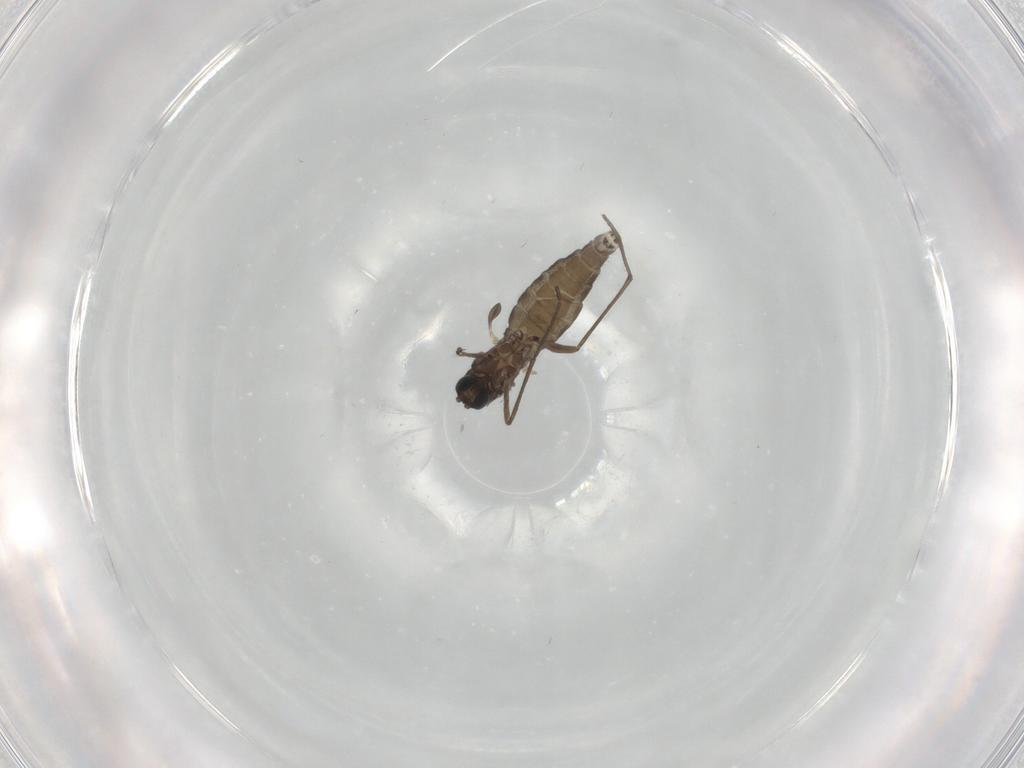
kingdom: Animalia
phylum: Arthropoda
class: Insecta
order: Diptera
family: Sciaridae
